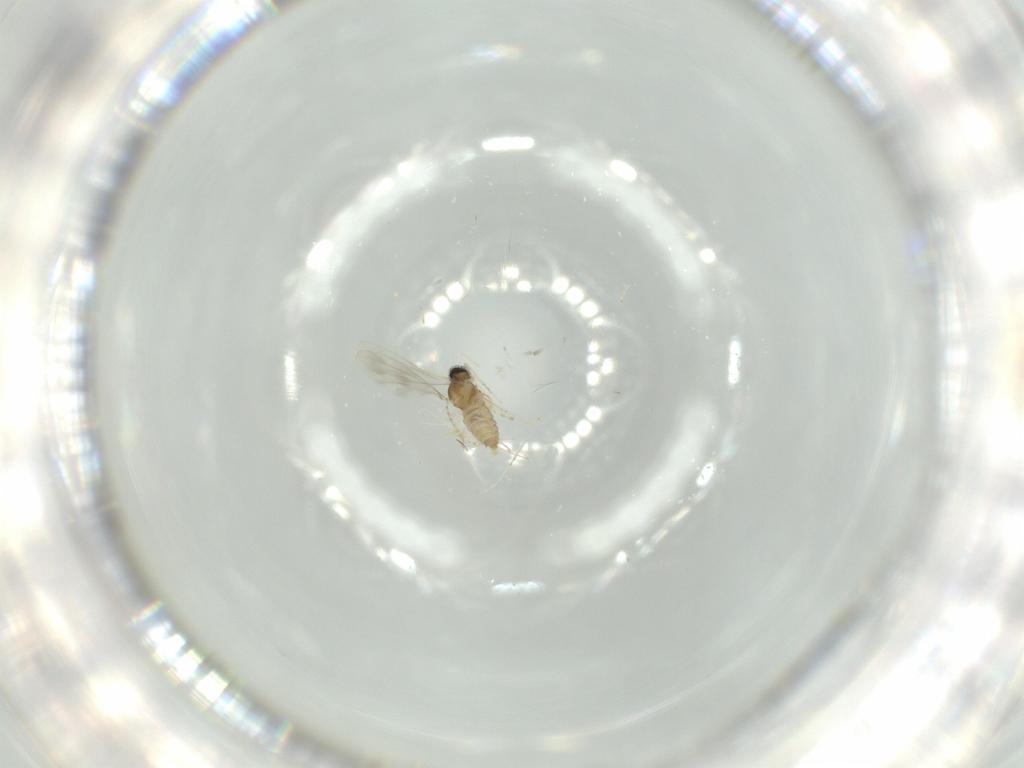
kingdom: Animalia
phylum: Arthropoda
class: Insecta
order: Diptera
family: Cecidomyiidae
